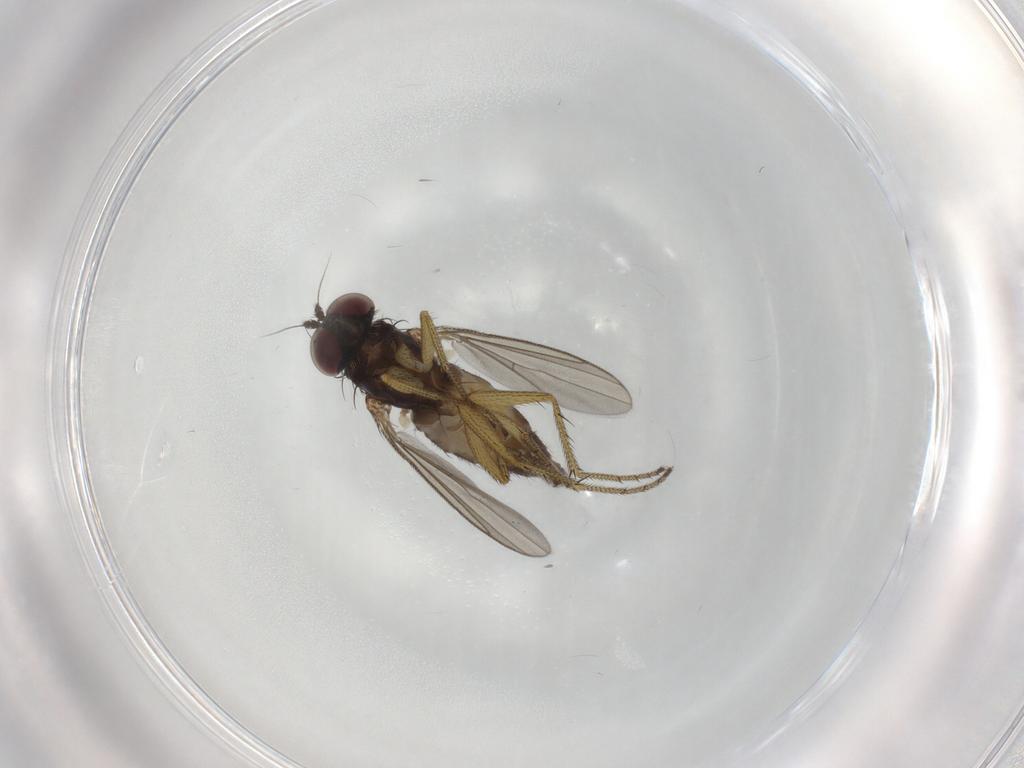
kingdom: Animalia
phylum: Arthropoda
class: Insecta
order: Diptera
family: Dolichopodidae
